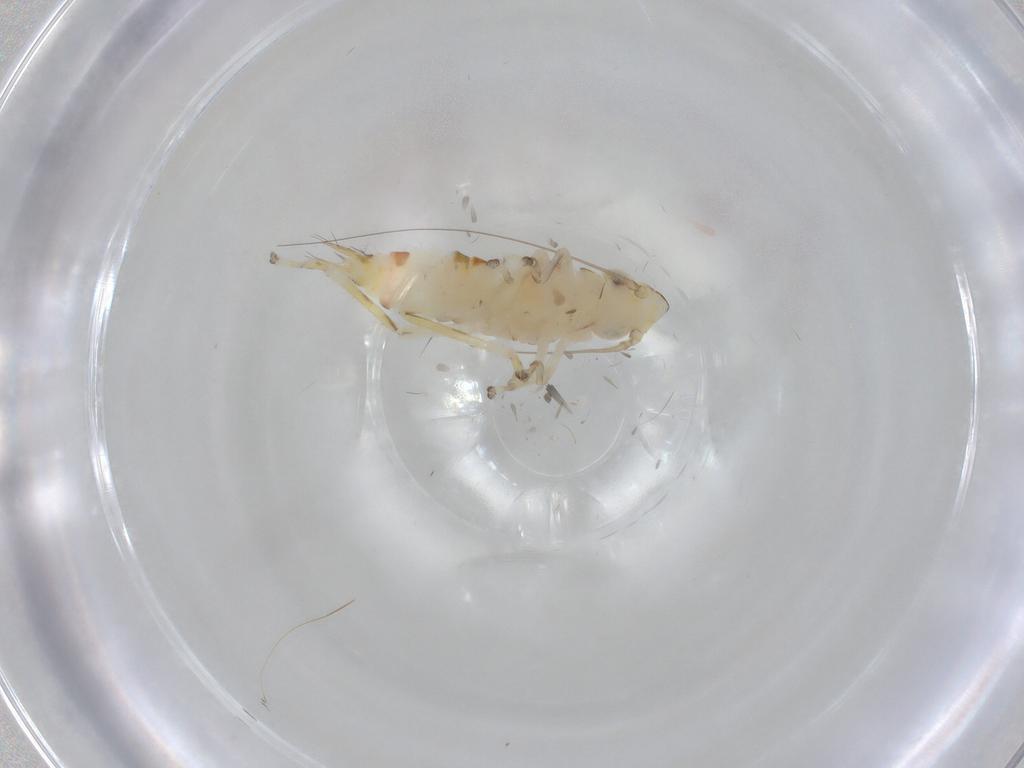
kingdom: Animalia
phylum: Arthropoda
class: Insecta
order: Hemiptera
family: Cicadellidae
